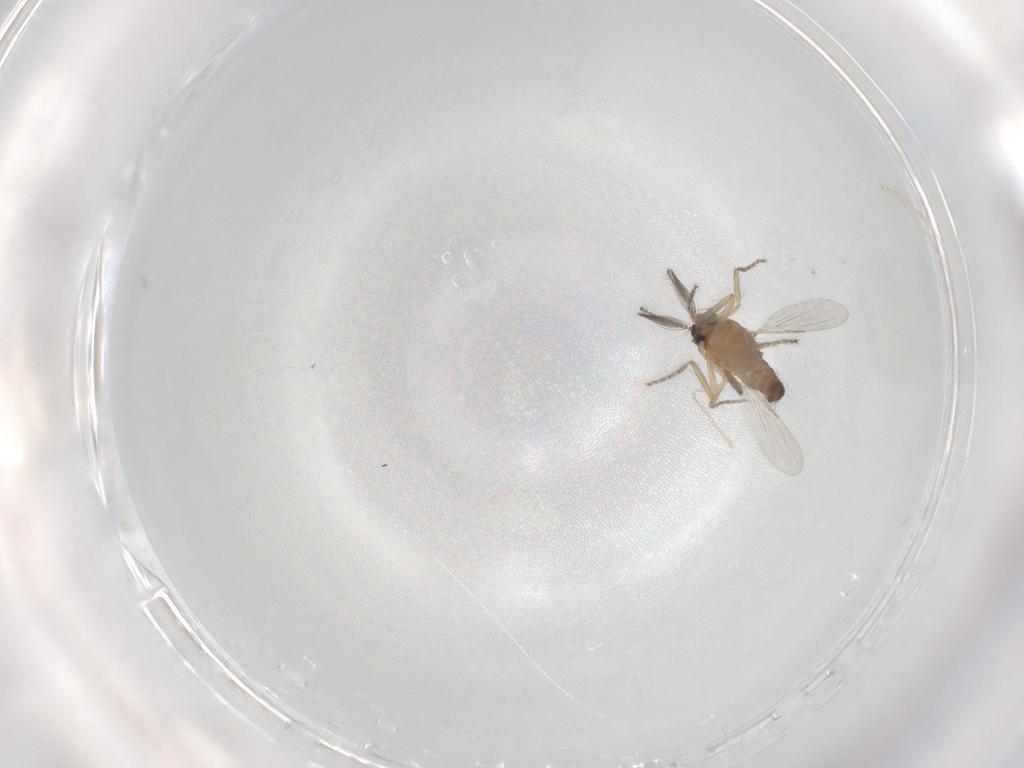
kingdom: Animalia
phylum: Arthropoda
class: Insecta
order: Diptera
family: Ceratopogonidae
